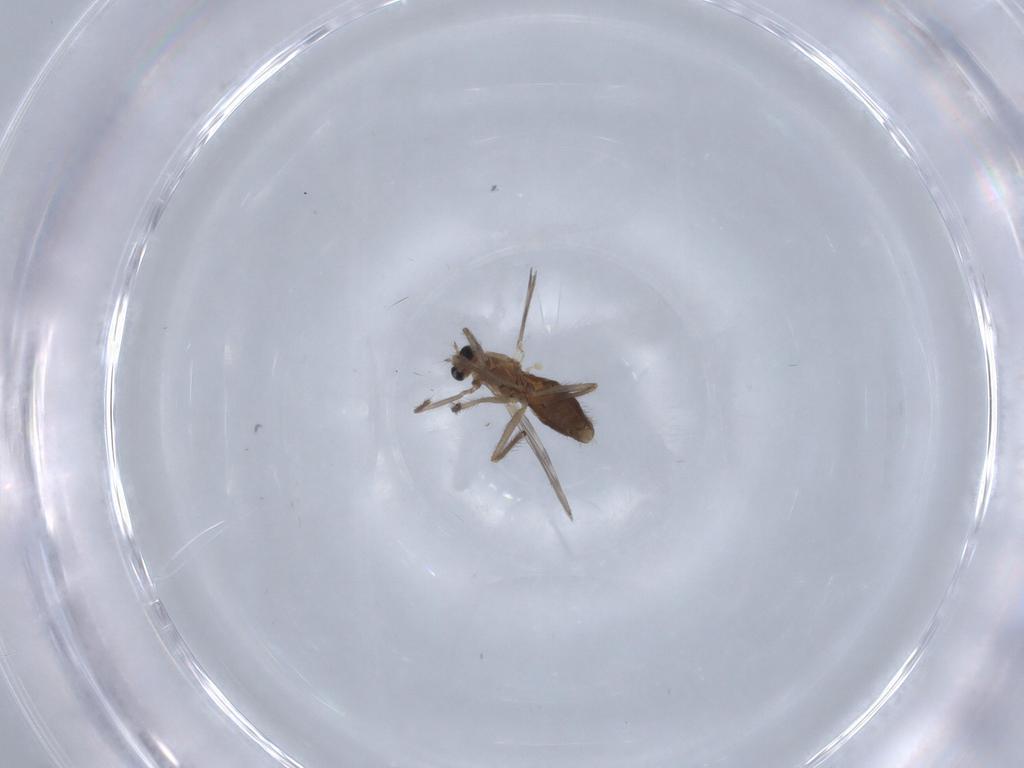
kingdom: Animalia
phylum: Arthropoda
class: Insecta
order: Diptera
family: Chironomidae
